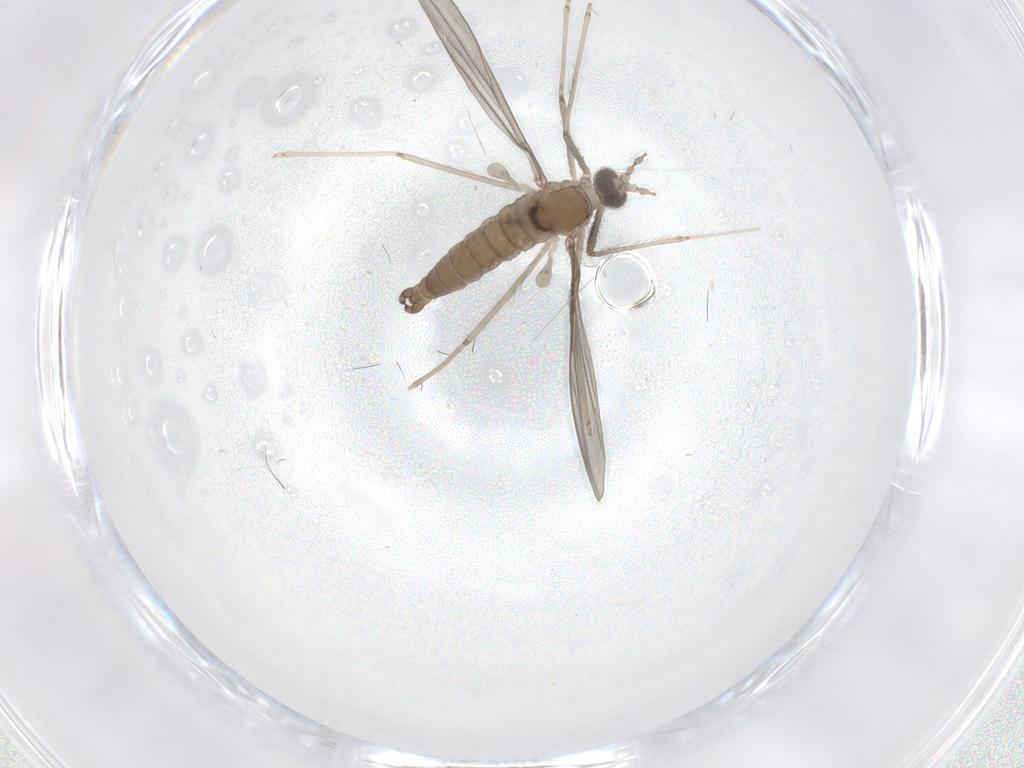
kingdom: Animalia
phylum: Arthropoda
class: Insecta
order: Diptera
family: Cecidomyiidae
